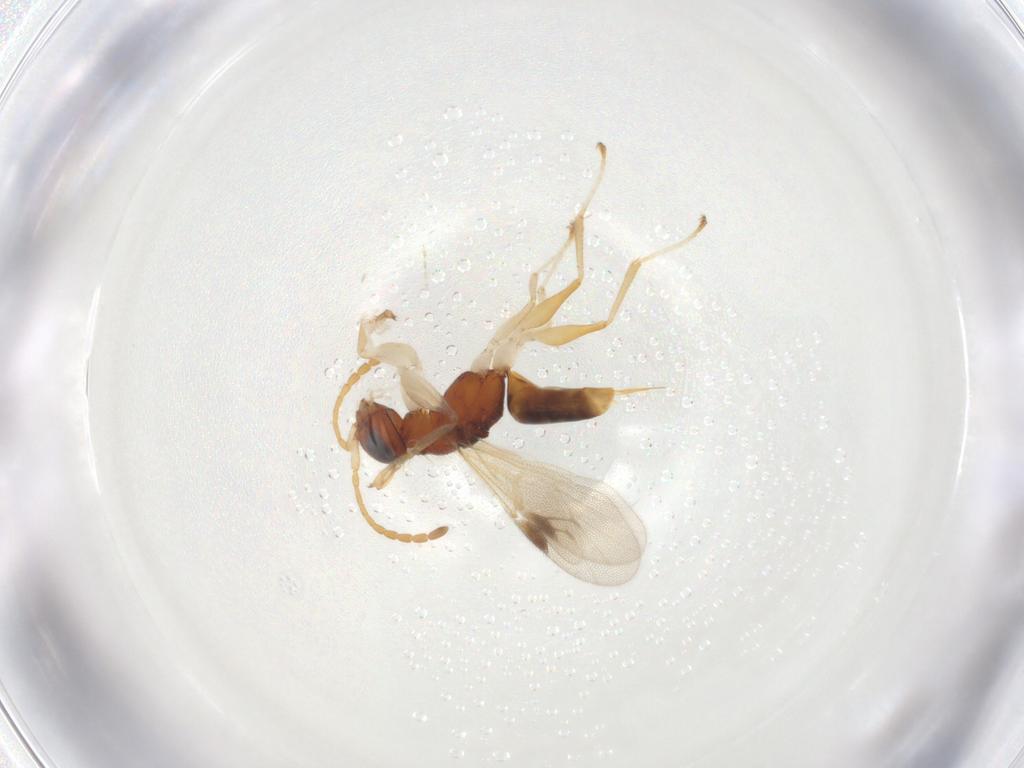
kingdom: Animalia
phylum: Arthropoda
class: Insecta
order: Hymenoptera
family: Dryinidae
